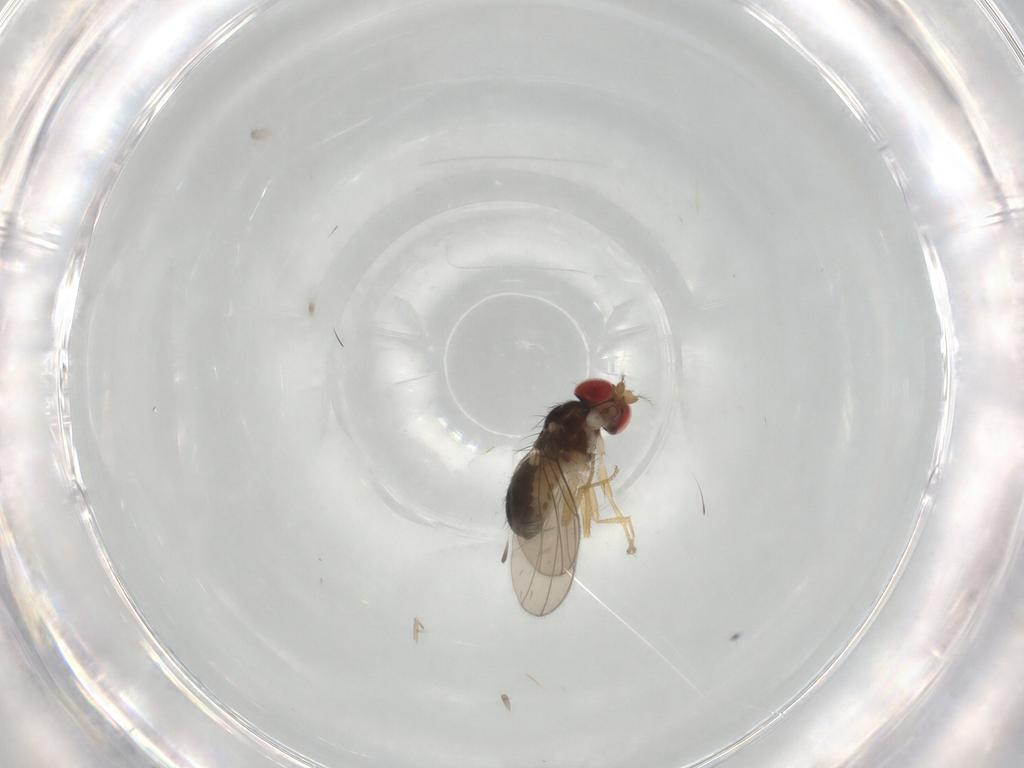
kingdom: Animalia
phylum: Arthropoda
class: Insecta
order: Diptera
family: Drosophilidae
